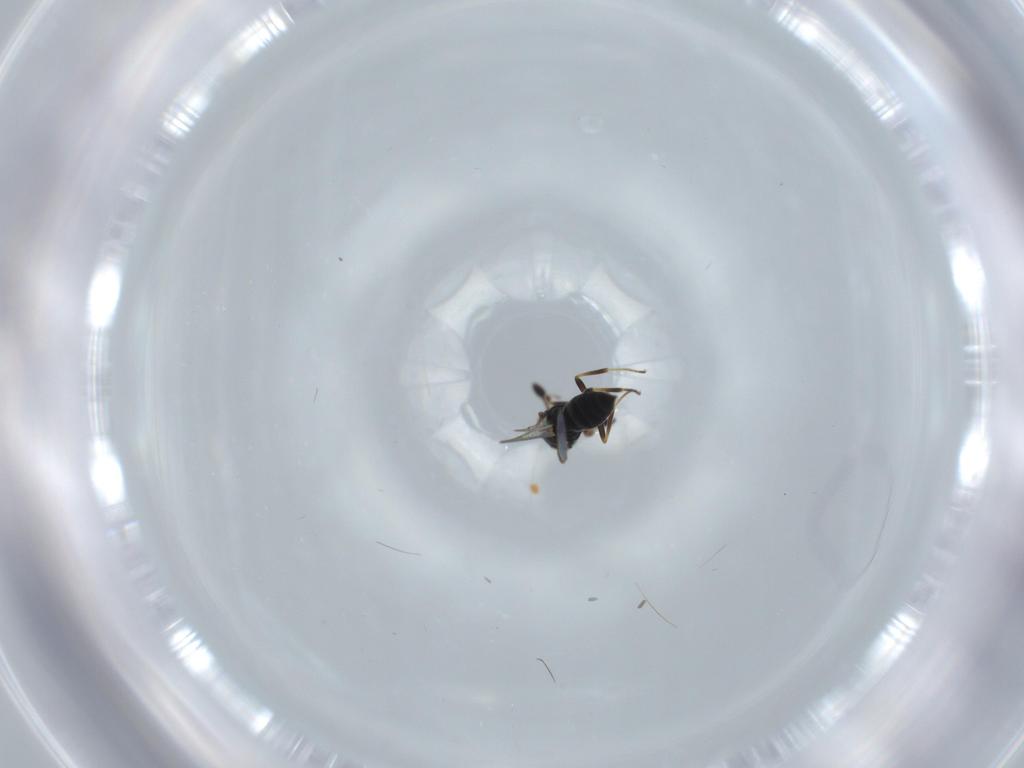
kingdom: Animalia
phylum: Arthropoda
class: Insecta
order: Hymenoptera
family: Scelionidae
